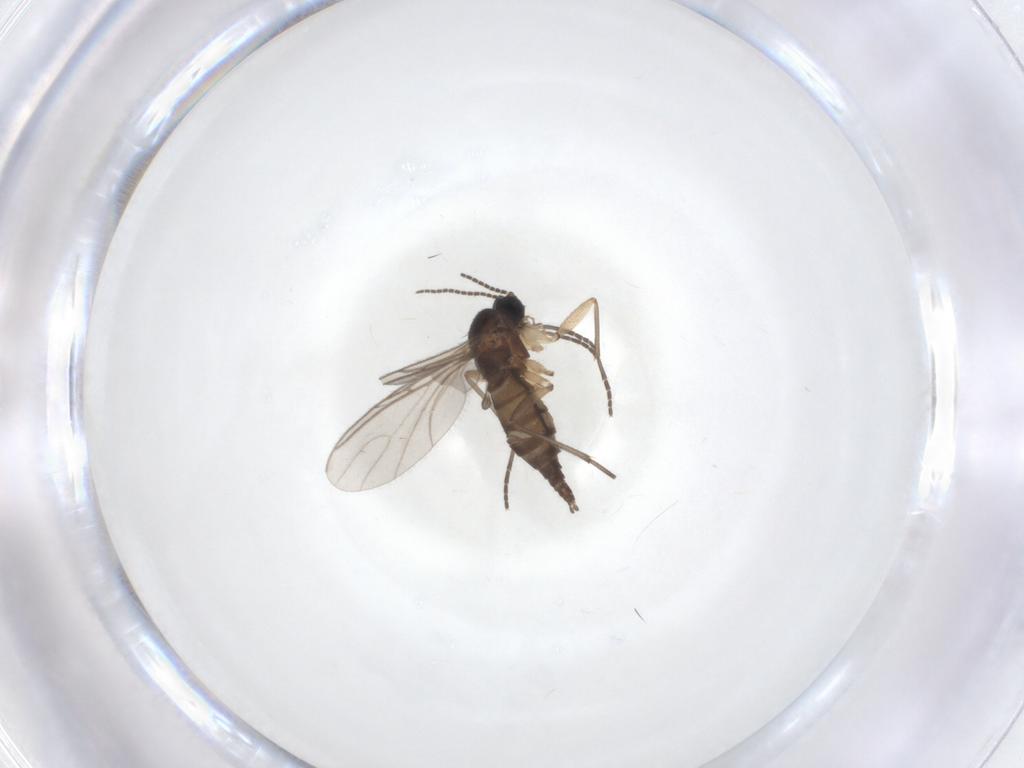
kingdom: Animalia
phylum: Arthropoda
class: Insecta
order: Diptera
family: Sciaridae
